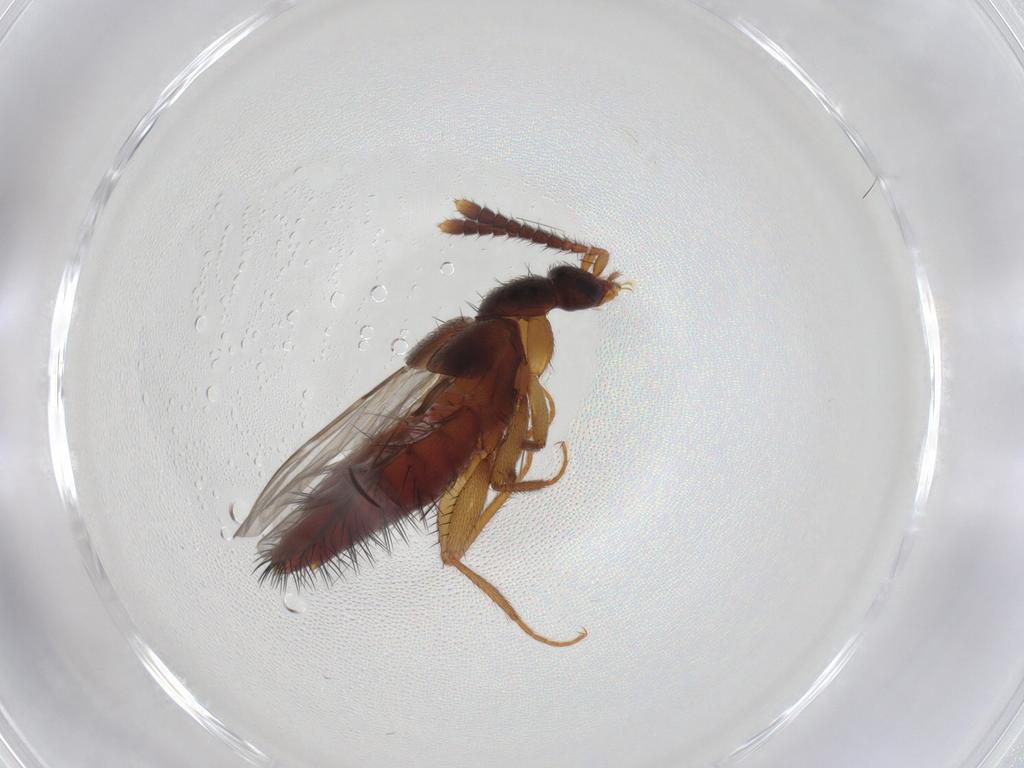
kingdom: Animalia
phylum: Arthropoda
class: Insecta
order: Coleoptera
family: Staphylinidae
